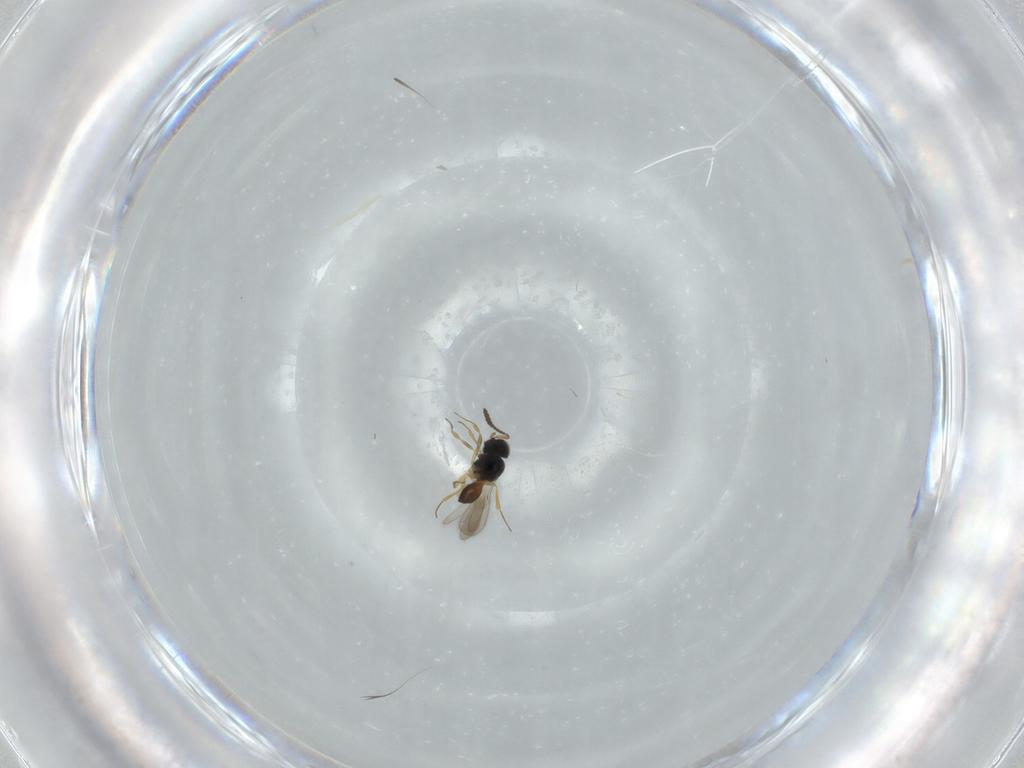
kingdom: Animalia
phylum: Arthropoda
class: Insecta
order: Hymenoptera
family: Scelionidae
